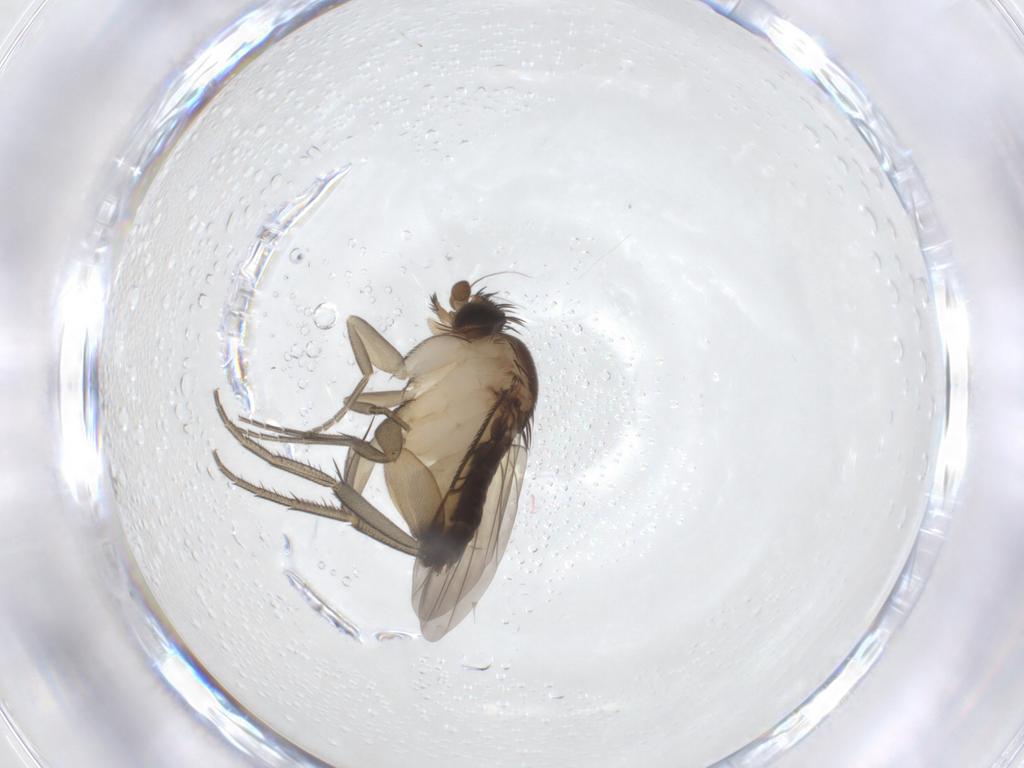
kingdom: Animalia
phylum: Arthropoda
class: Insecta
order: Diptera
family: Phoridae
